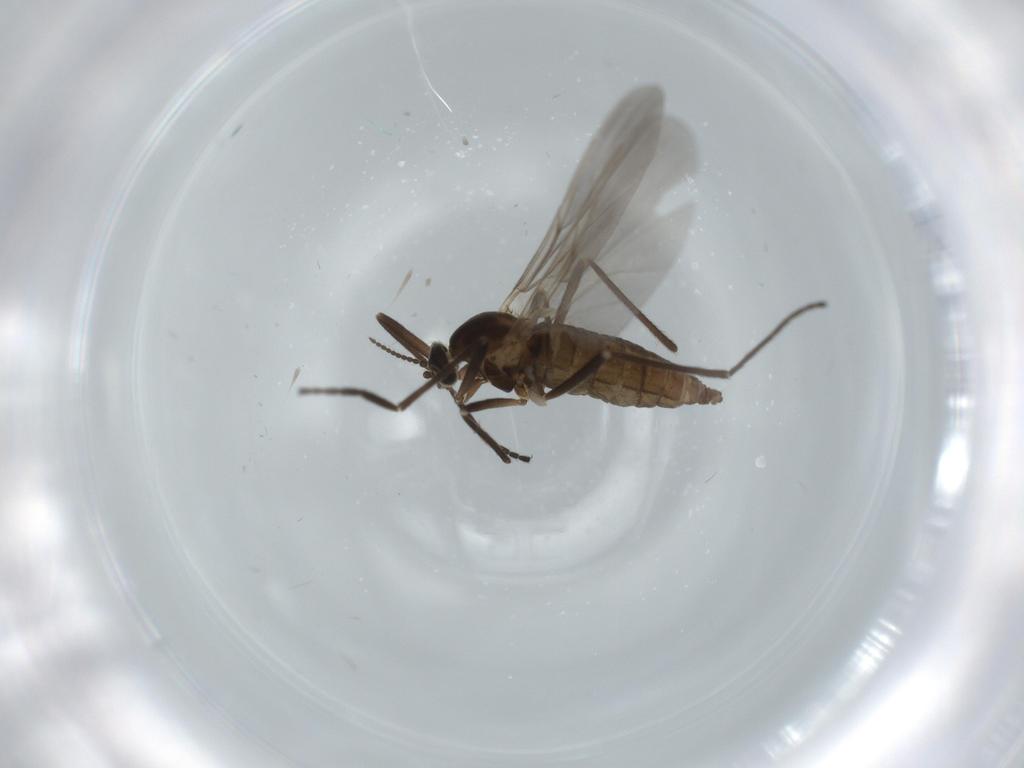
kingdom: Animalia
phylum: Arthropoda
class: Insecta
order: Diptera
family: Cecidomyiidae
